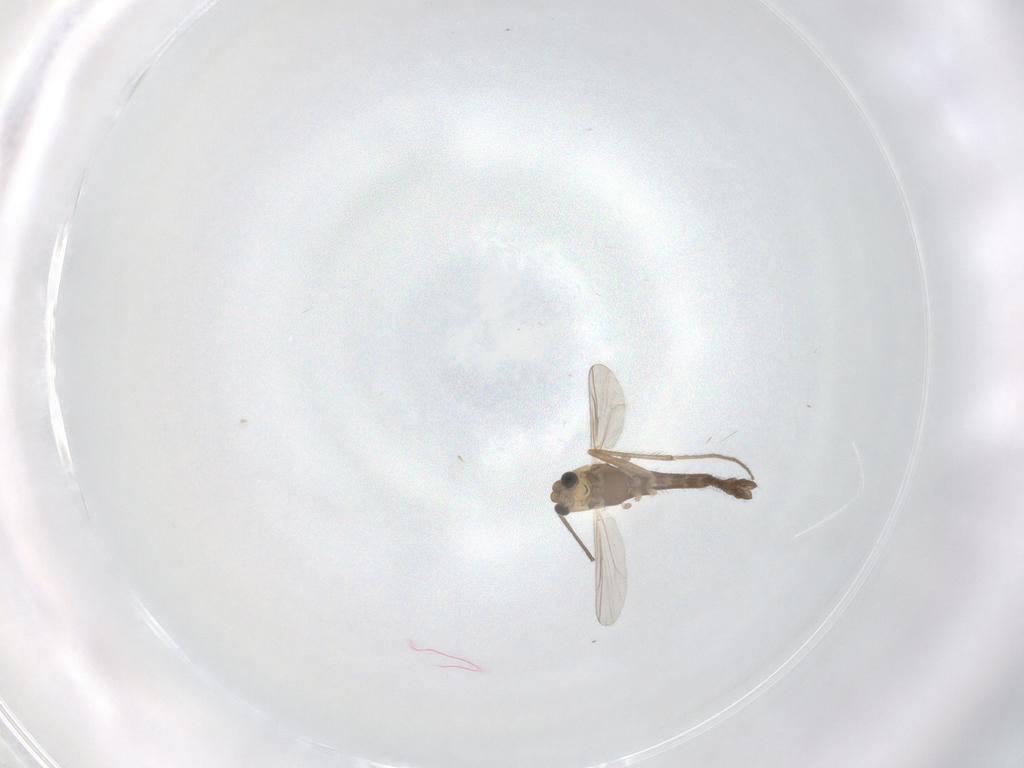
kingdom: Animalia
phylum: Arthropoda
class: Insecta
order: Diptera
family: Chironomidae
